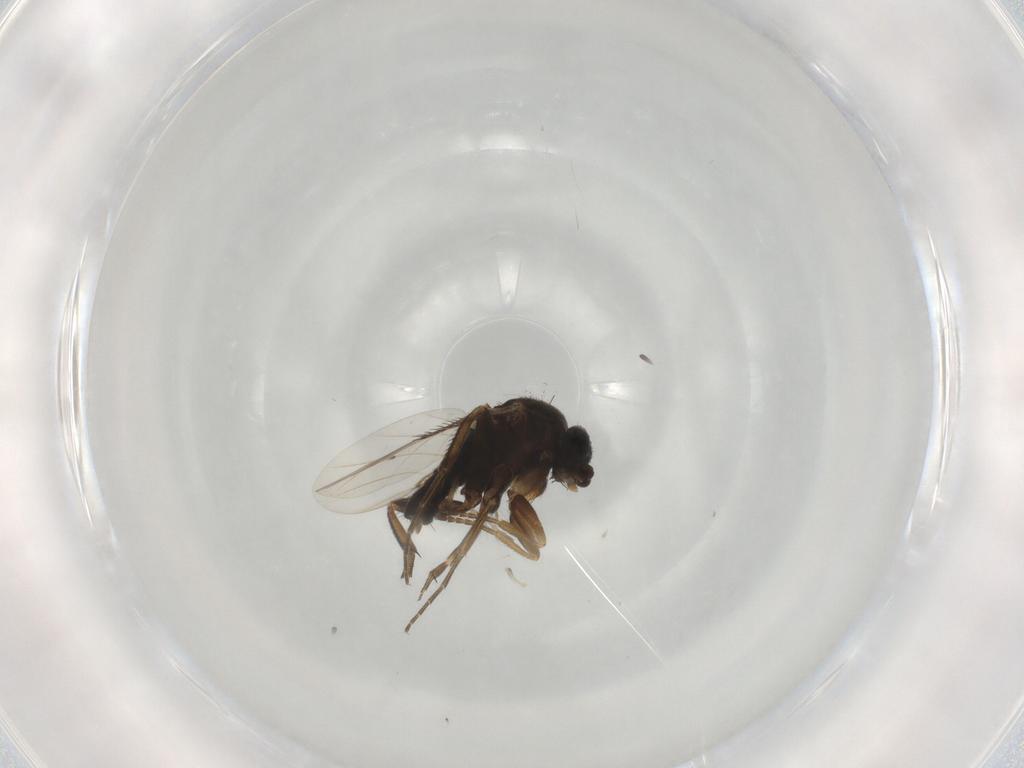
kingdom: Animalia
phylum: Arthropoda
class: Insecta
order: Diptera
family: Phoridae
